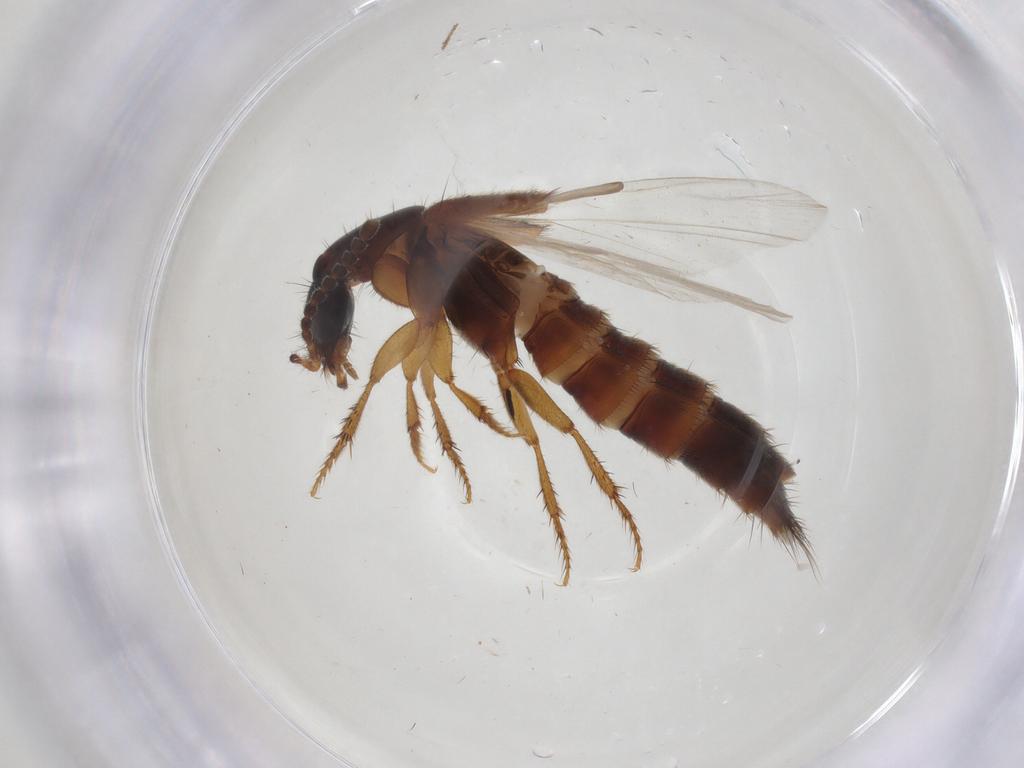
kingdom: Animalia
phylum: Arthropoda
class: Insecta
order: Coleoptera
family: Staphylinidae
